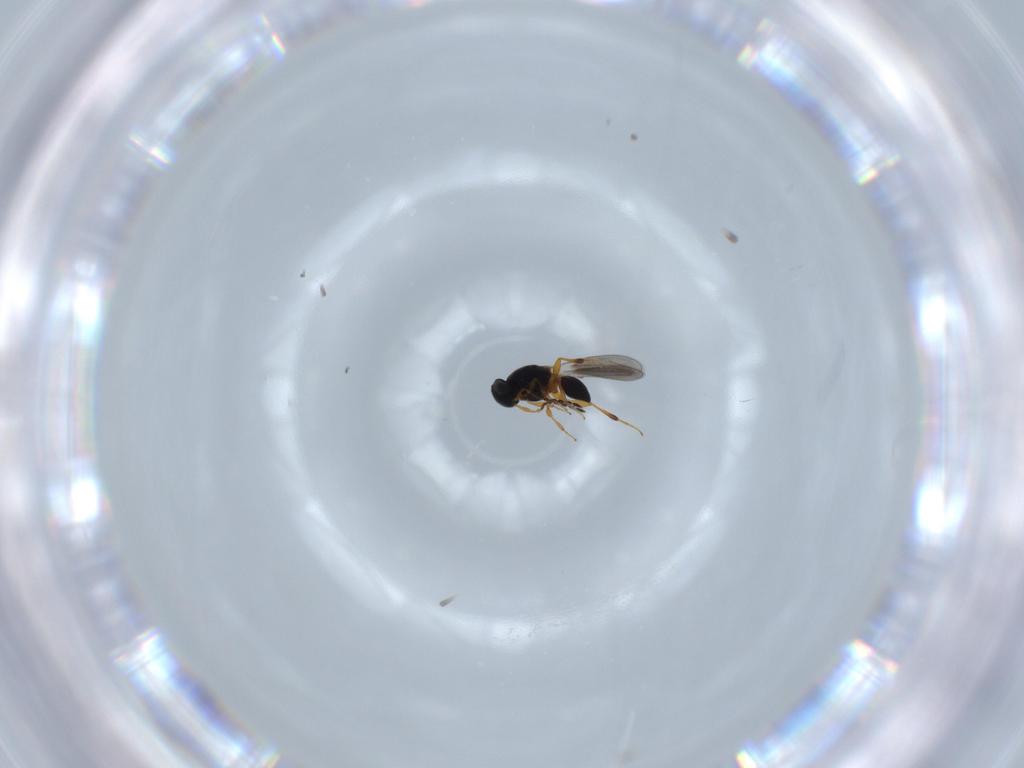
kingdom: Animalia
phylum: Arthropoda
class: Insecta
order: Hymenoptera
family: Platygastridae
